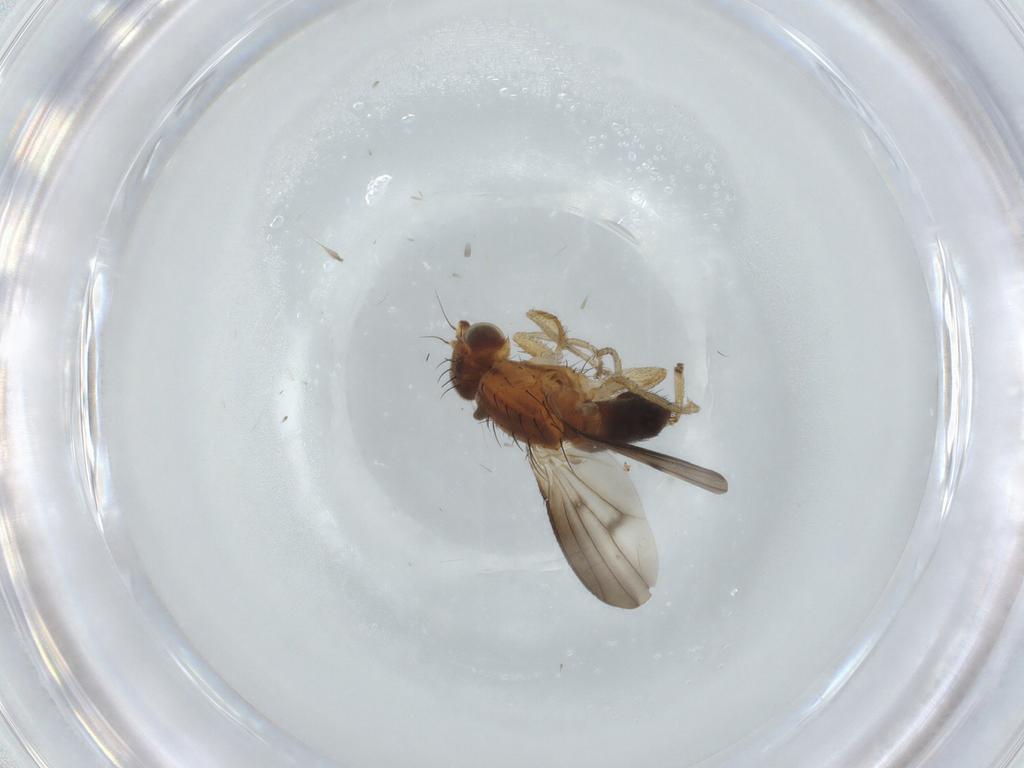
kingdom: Animalia
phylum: Arthropoda
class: Insecta
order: Diptera
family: Heleomyzidae
